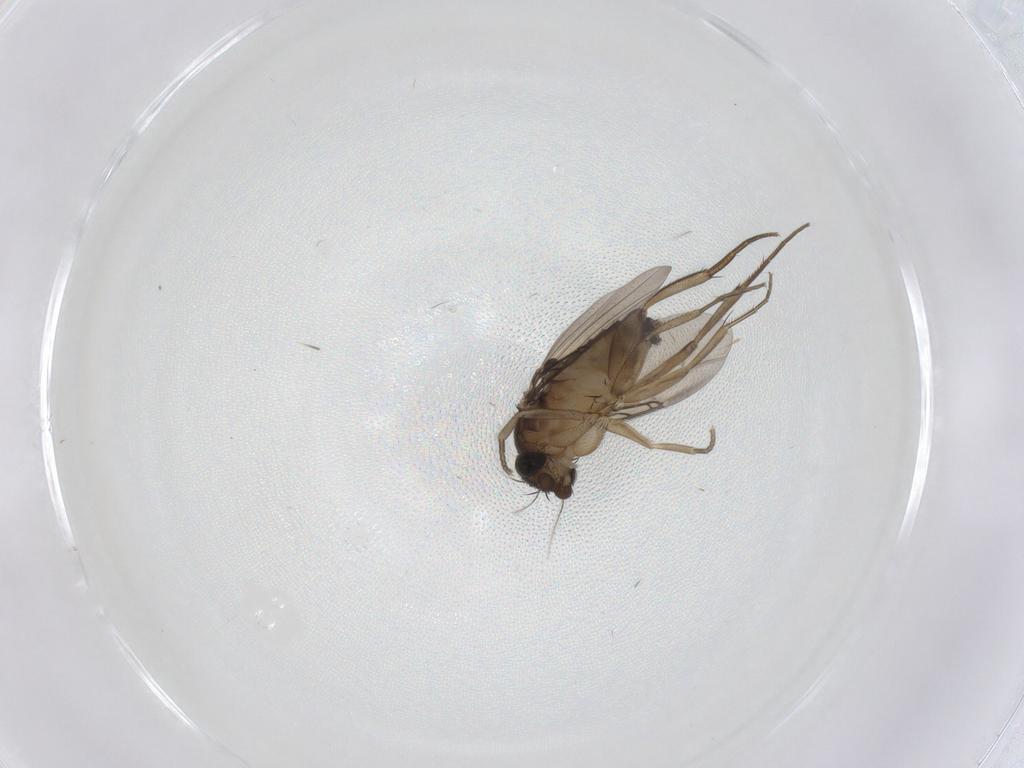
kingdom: Animalia
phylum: Arthropoda
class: Insecta
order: Diptera
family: Phoridae
